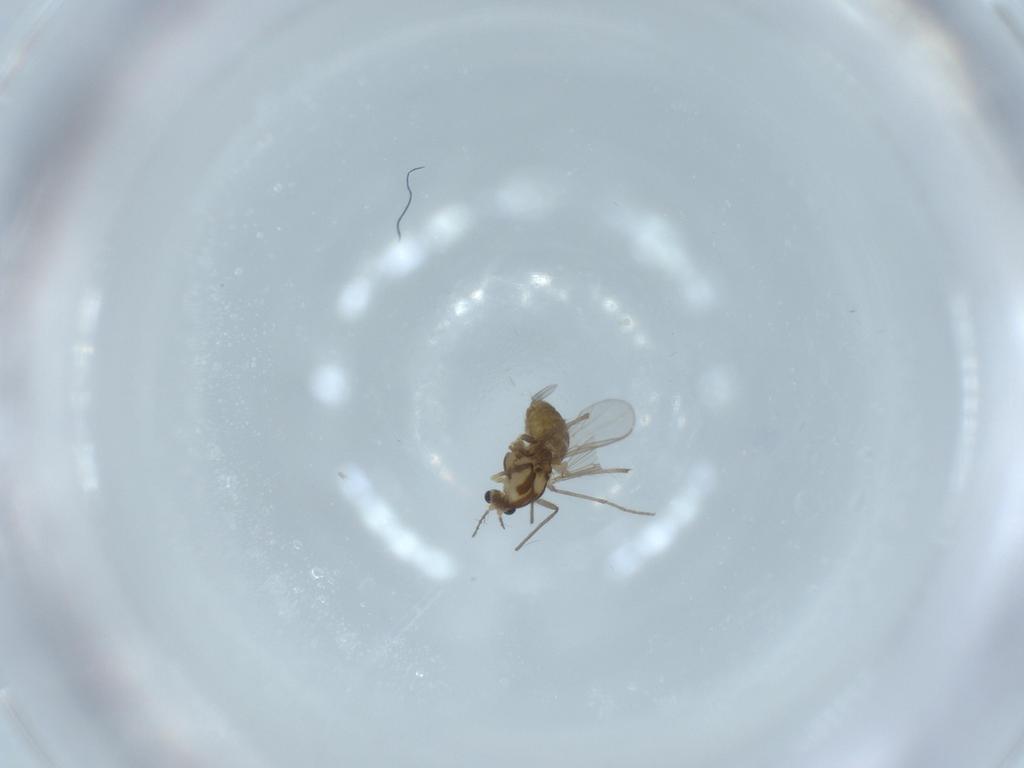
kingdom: Animalia
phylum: Arthropoda
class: Insecta
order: Diptera
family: Chironomidae
